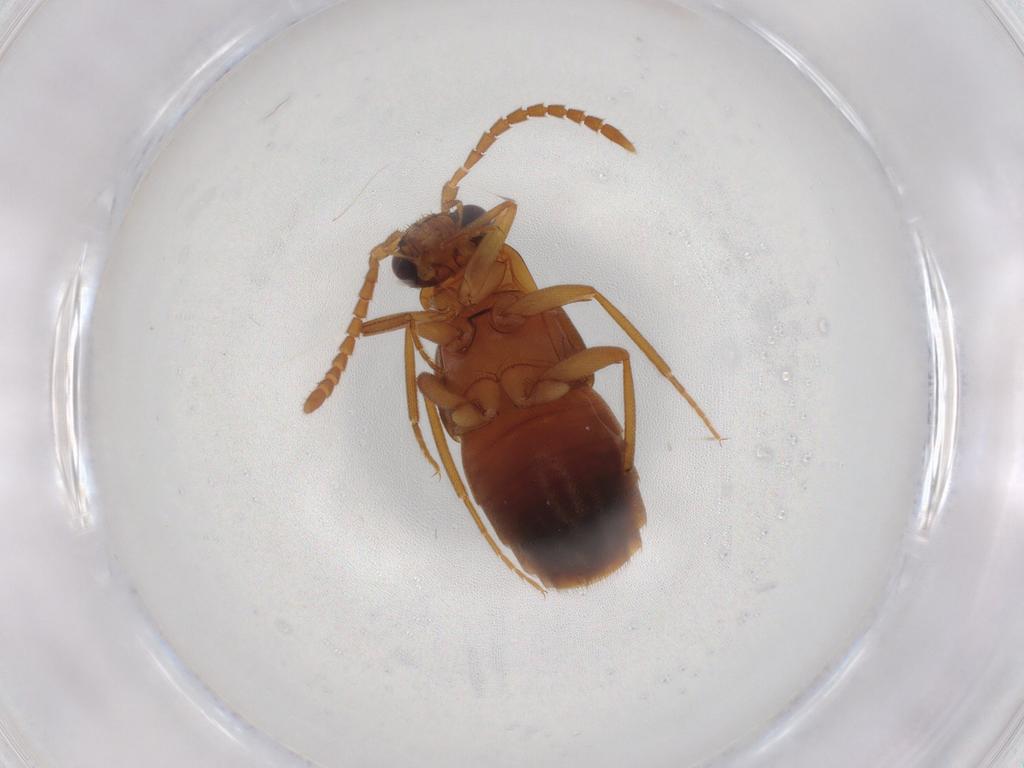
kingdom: Animalia
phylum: Arthropoda
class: Insecta
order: Coleoptera
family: Staphylinidae
